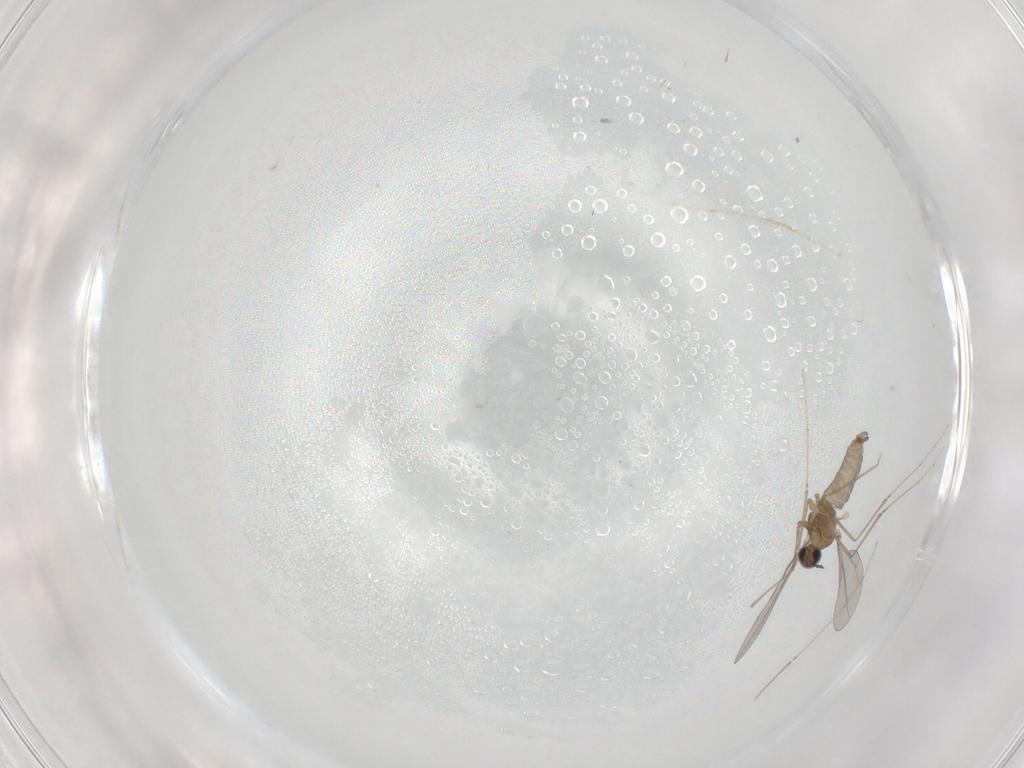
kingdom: Animalia
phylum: Arthropoda
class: Insecta
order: Diptera
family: Cecidomyiidae
